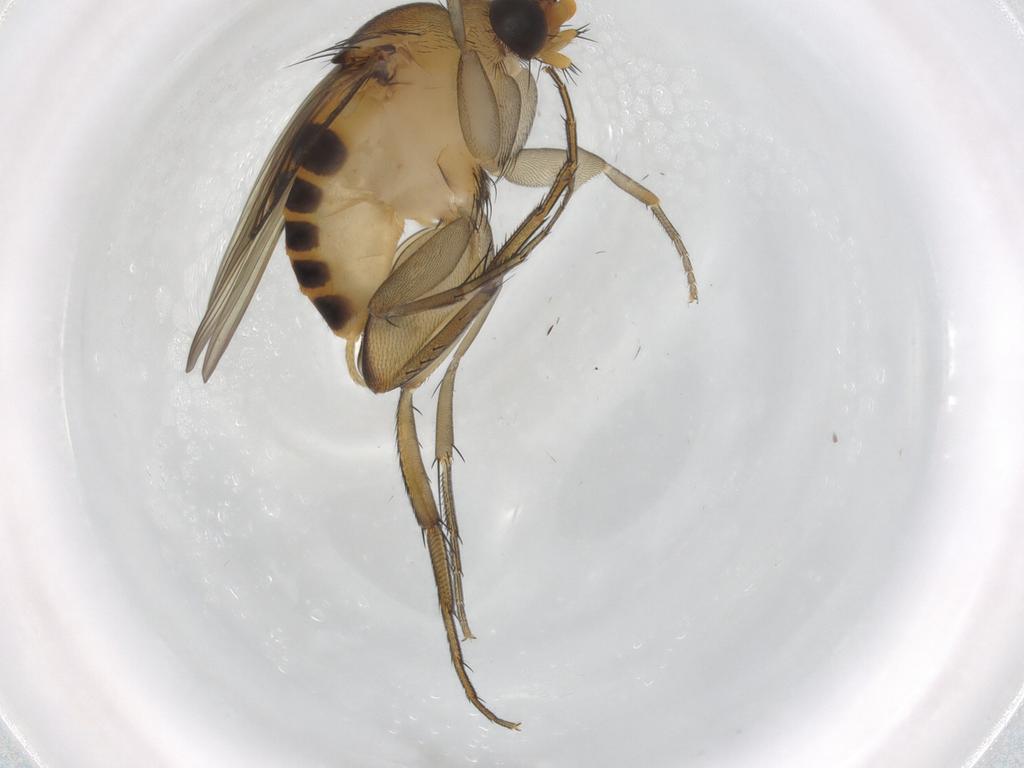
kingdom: Animalia
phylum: Arthropoda
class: Insecta
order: Diptera
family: Phoridae
